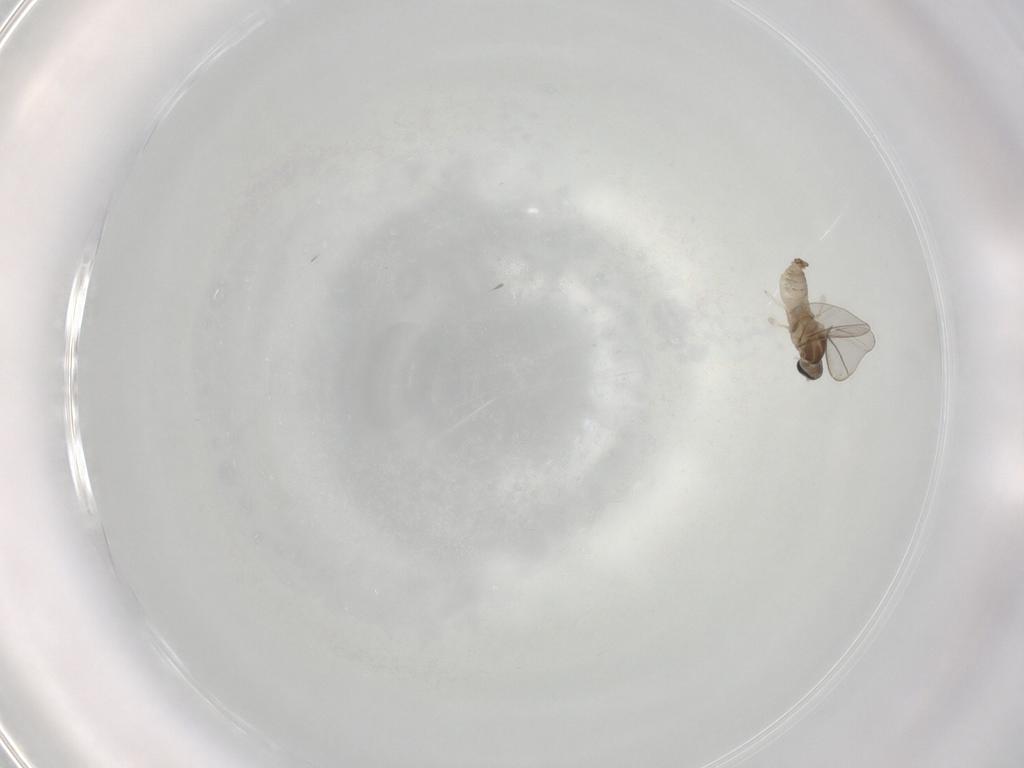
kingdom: Animalia
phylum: Arthropoda
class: Insecta
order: Diptera
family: Cecidomyiidae
